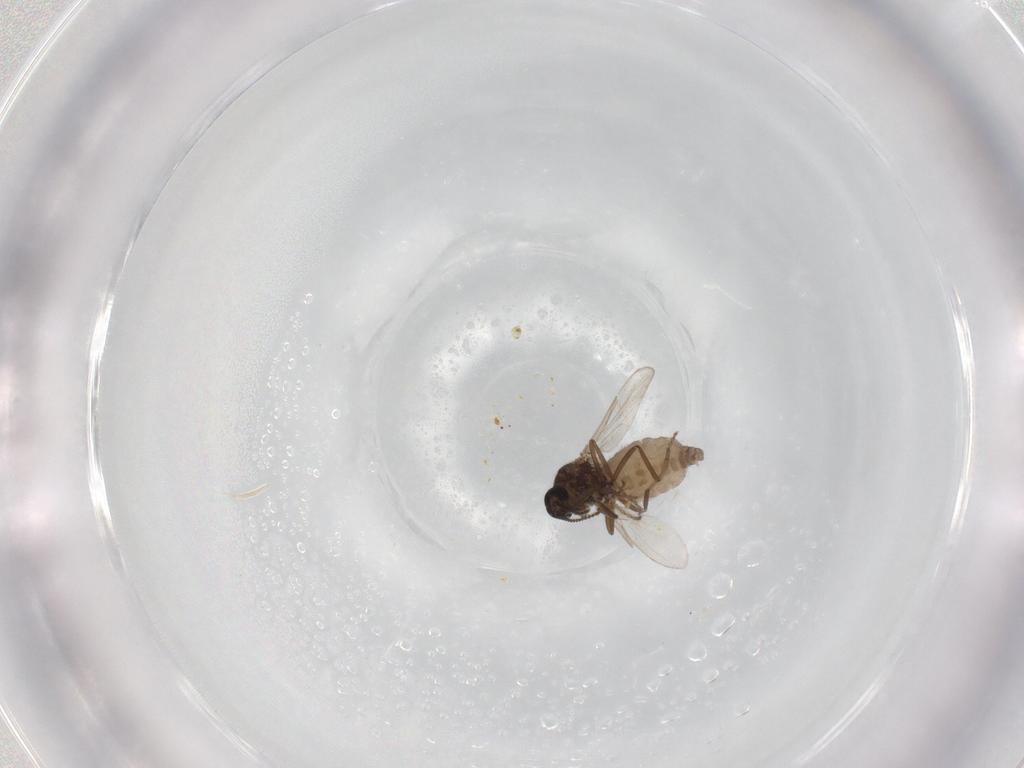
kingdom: Animalia
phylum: Arthropoda
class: Insecta
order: Diptera
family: Ceratopogonidae
